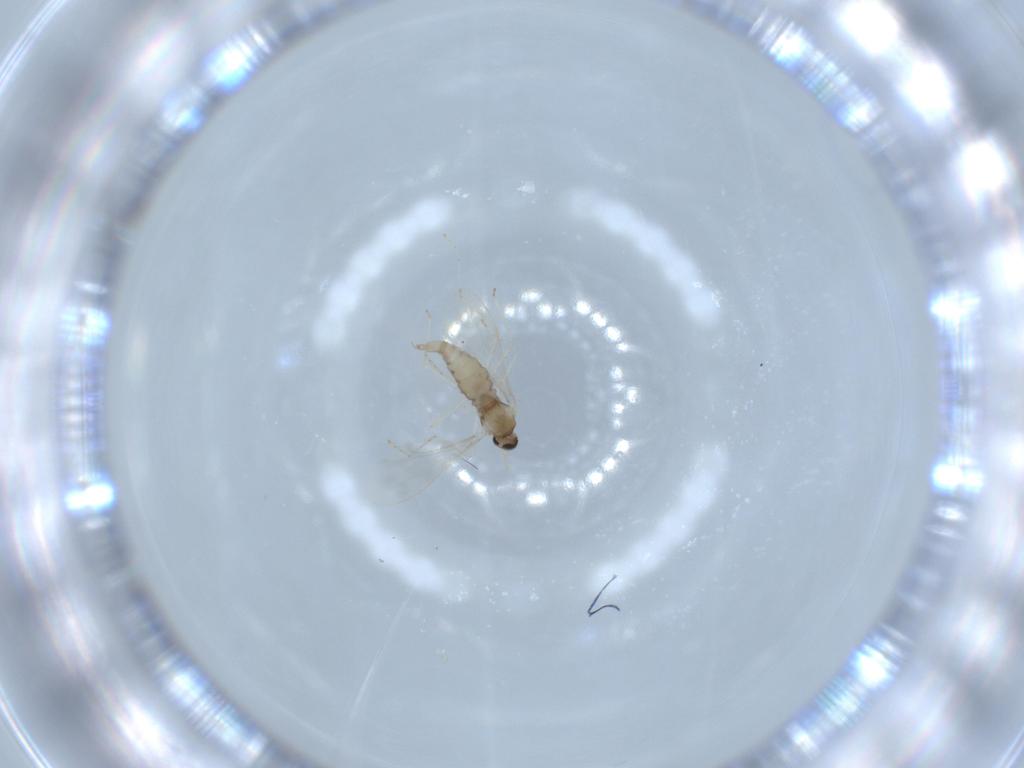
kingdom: Animalia
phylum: Arthropoda
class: Insecta
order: Diptera
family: Cecidomyiidae
